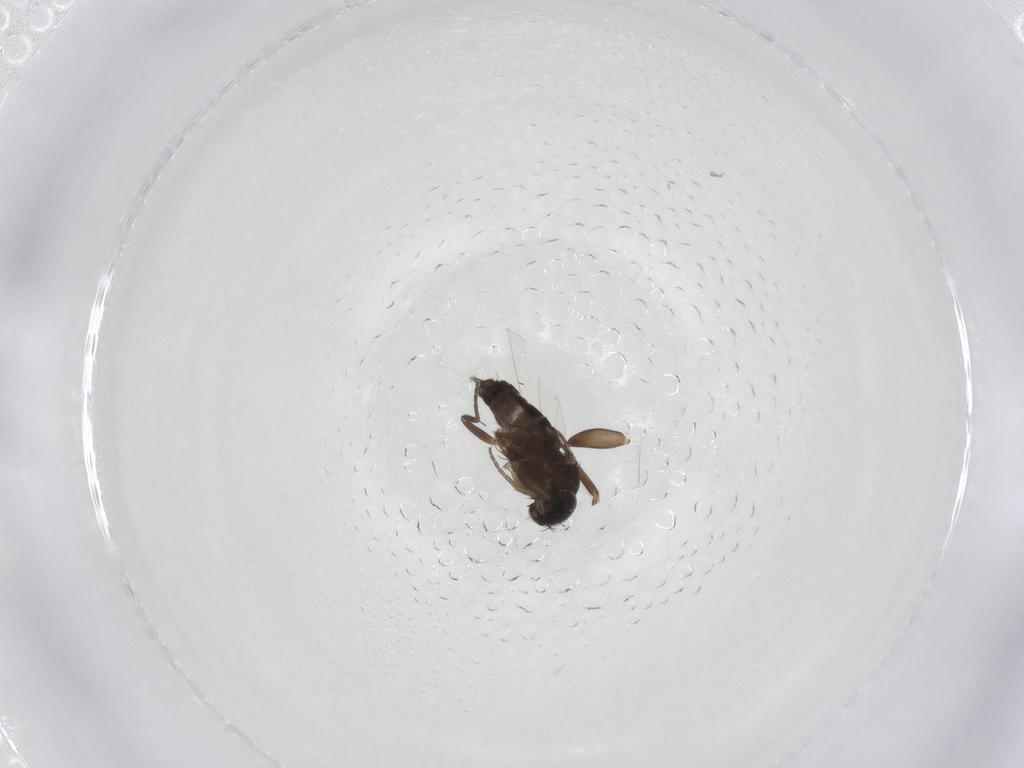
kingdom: Animalia
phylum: Arthropoda
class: Insecta
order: Diptera
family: Phoridae
